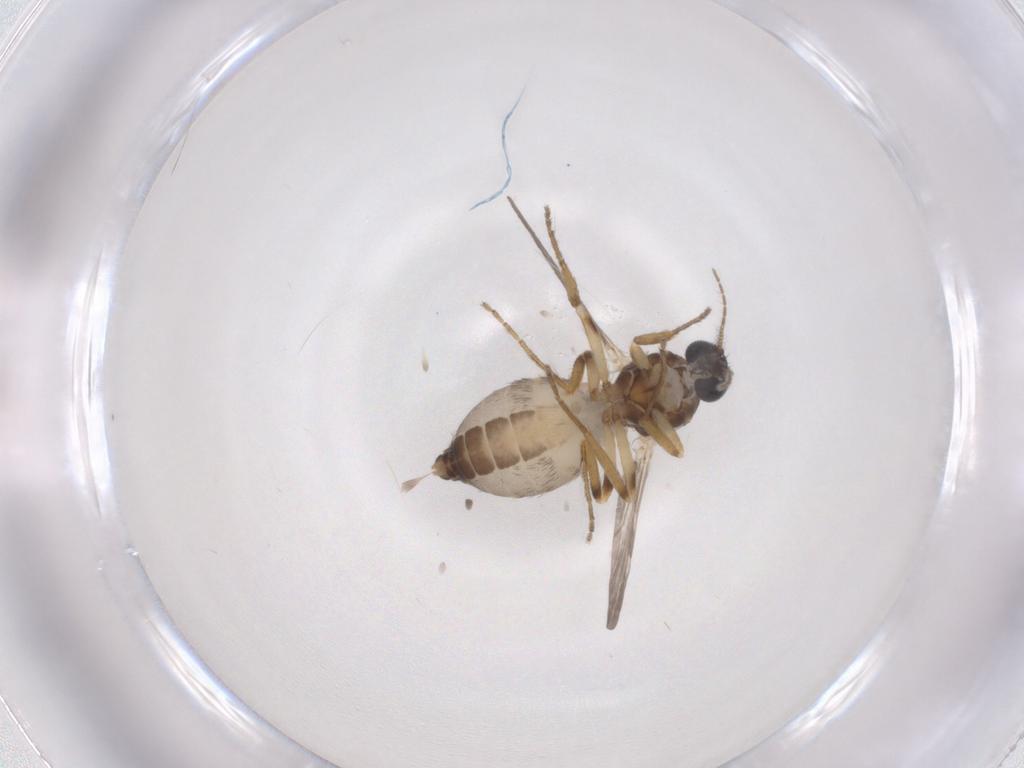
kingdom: Animalia
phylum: Arthropoda
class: Insecta
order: Diptera
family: Ceratopogonidae
